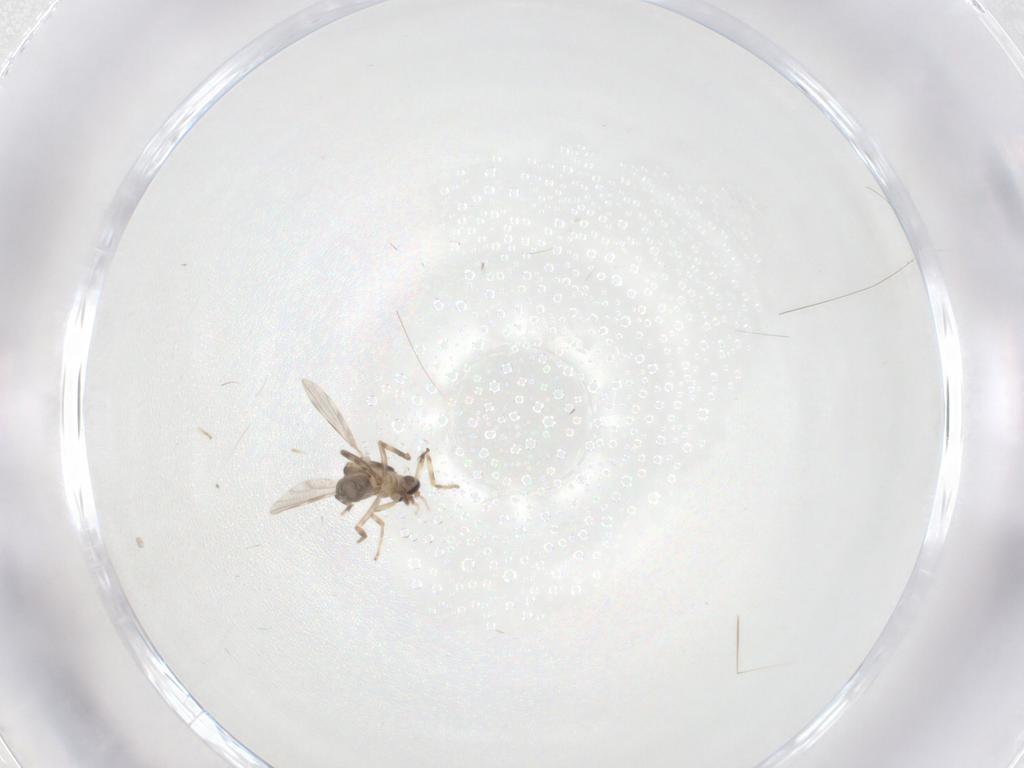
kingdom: Animalia
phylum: Arthropoda
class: Insecta
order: Diptera
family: Ceratopogonidae
